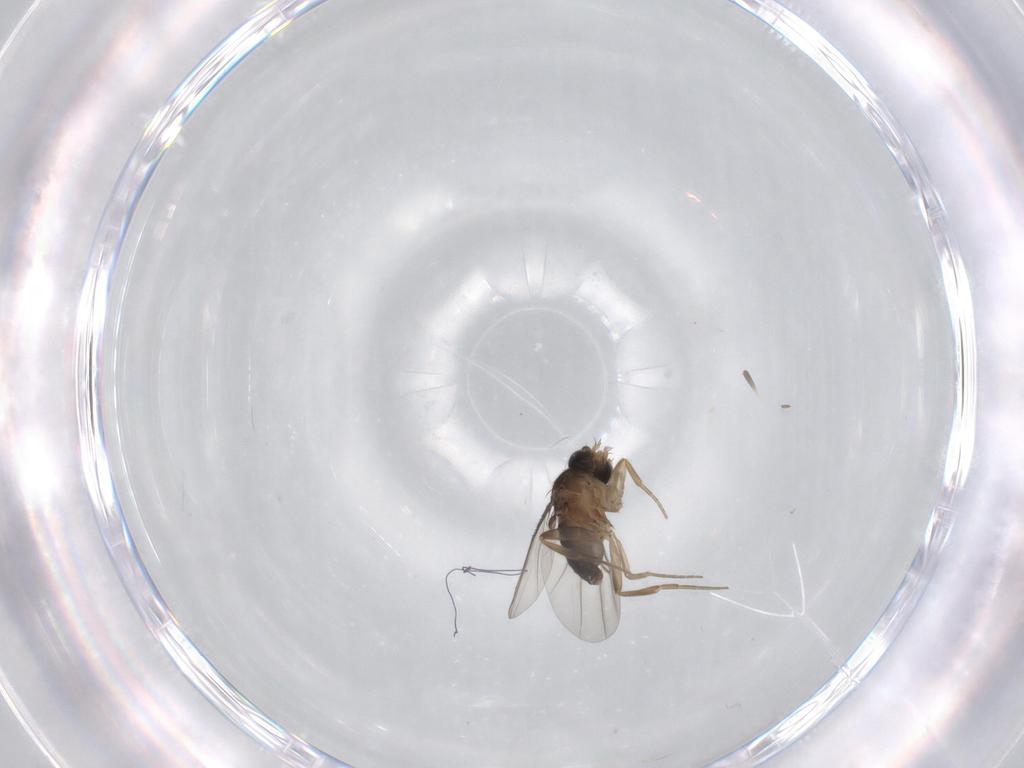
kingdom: Animalia
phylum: Arthropoda
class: Insecta
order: Diptera
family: Phoridae
